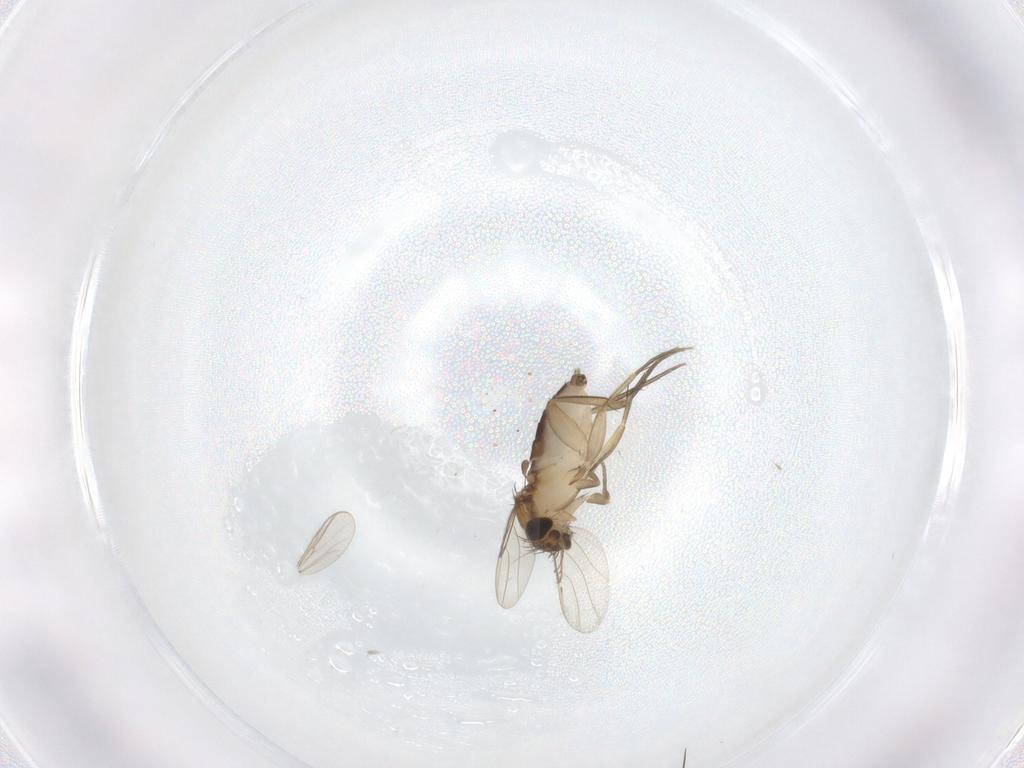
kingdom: Animalia
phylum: Arthropoda
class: Insecta
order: Diptera
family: Phoridae
